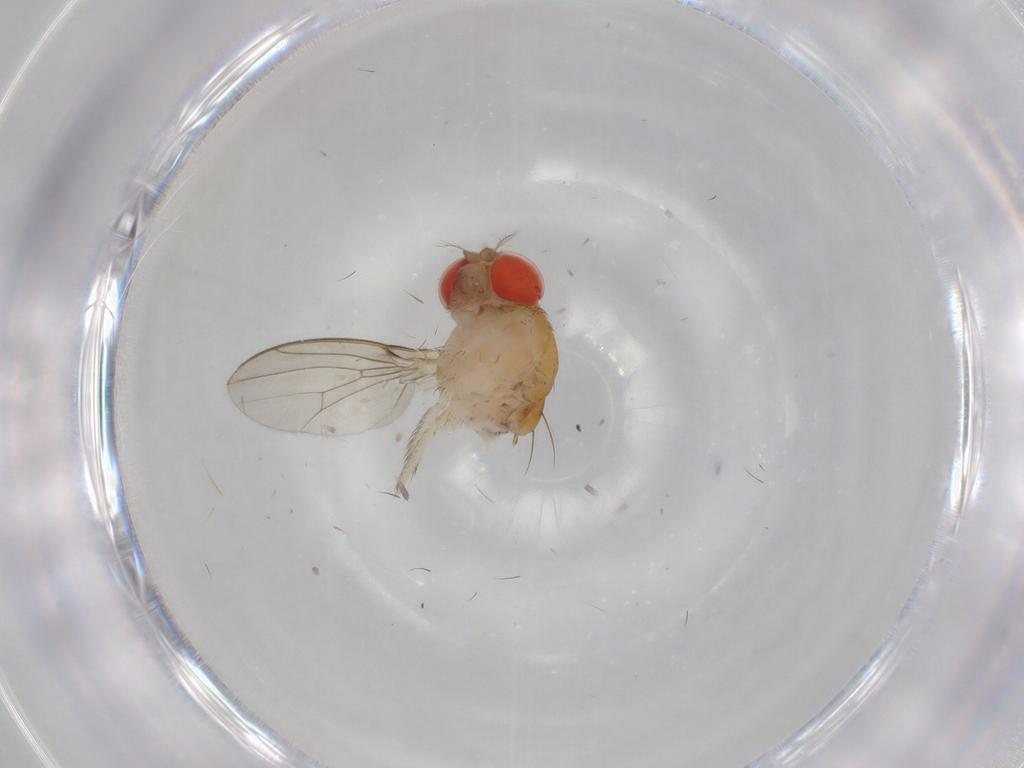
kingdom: Animalia
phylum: Arthropoda
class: Insecta
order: Diptera
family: Drosophilidae
